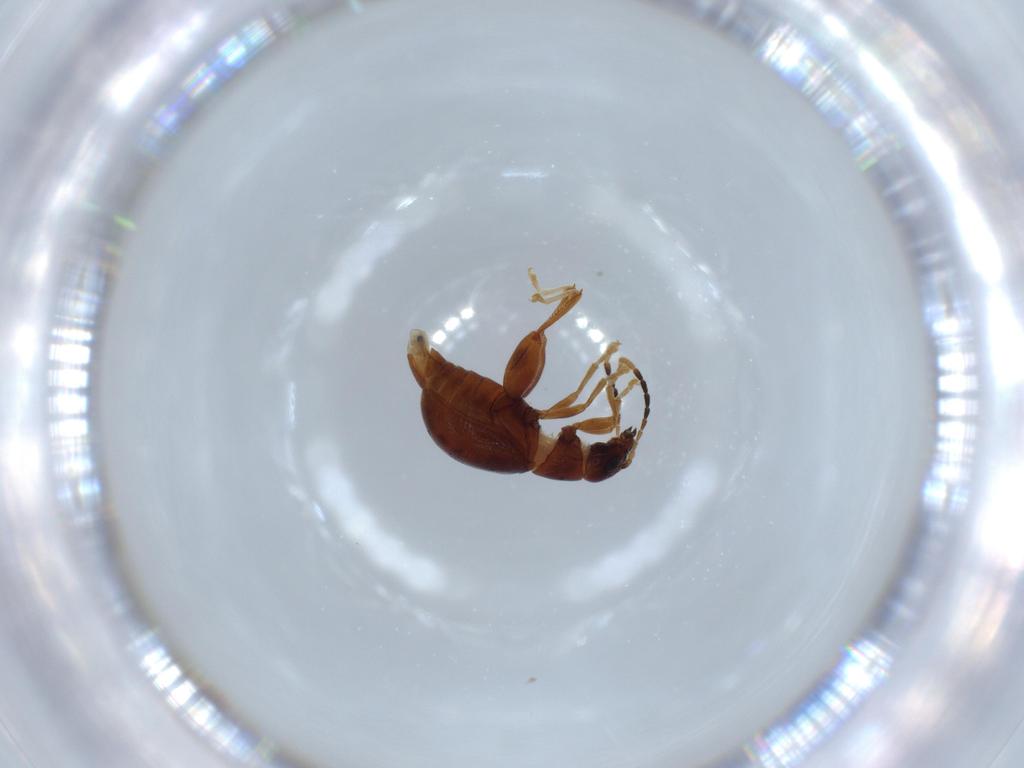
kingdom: Animalia
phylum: Arthropoda
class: Insecta
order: Coleoptera
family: Chrysomelidae
